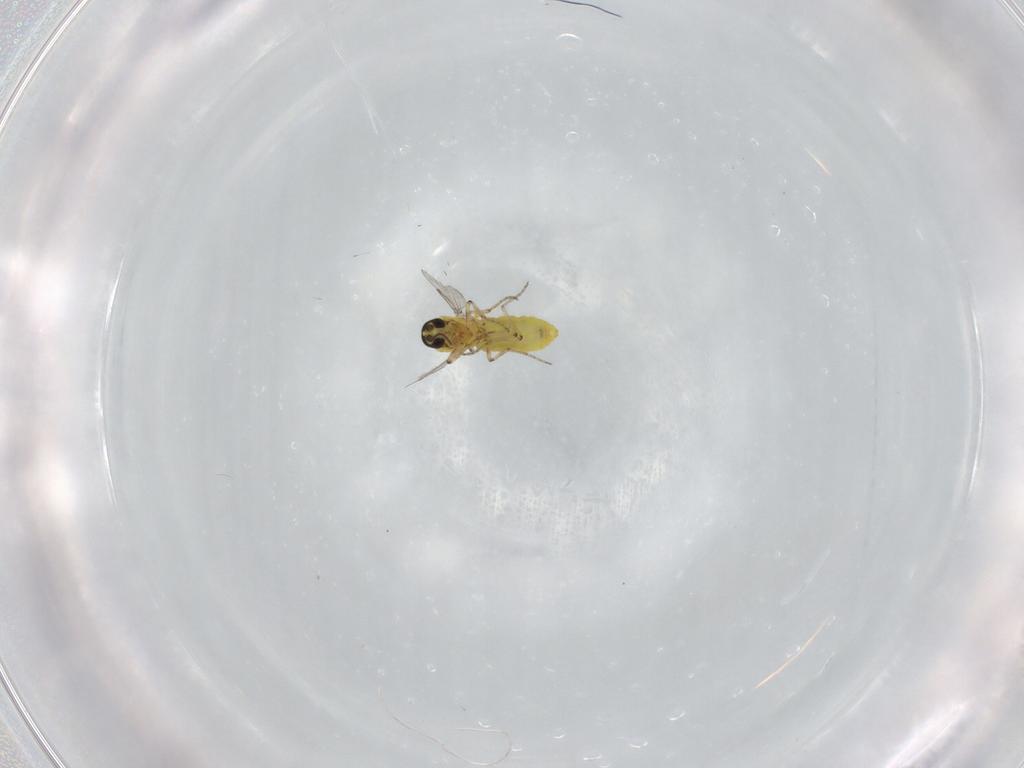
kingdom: Animalia
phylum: Arthropoda
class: Insecta
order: Diptera
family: Ceratopogonidae
